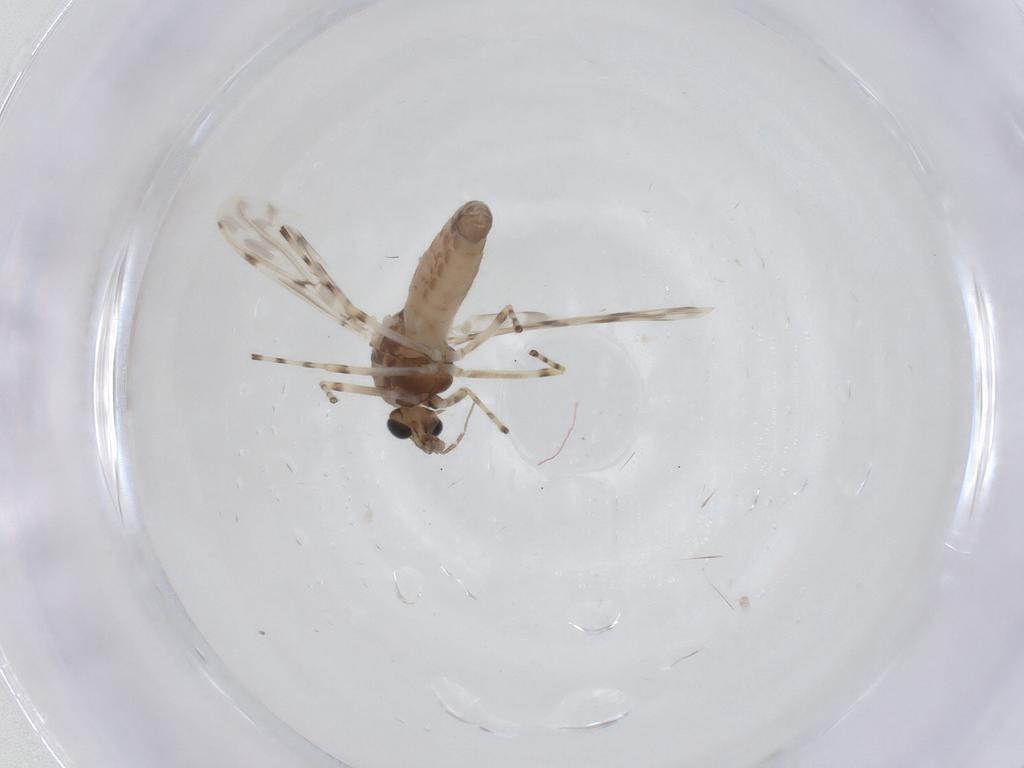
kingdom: Animalia
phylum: Arthropoda
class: Insecta
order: Diptera
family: Chironomidae
